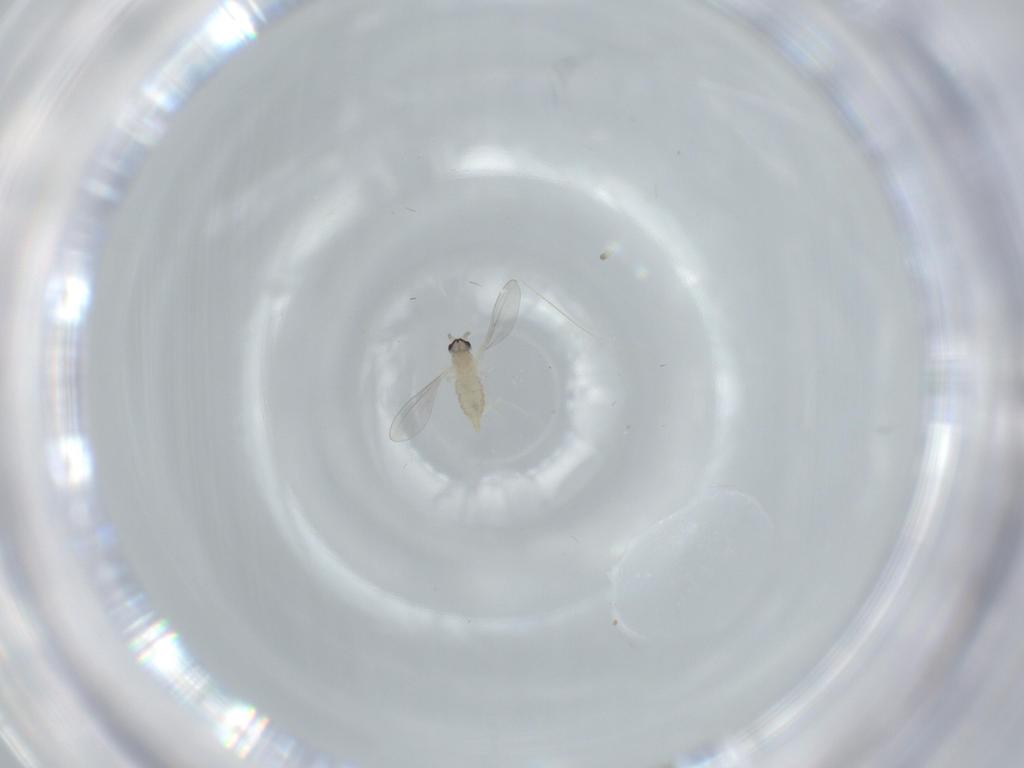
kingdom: Animalia
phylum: Arthropoda
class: Insecta
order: Diptera
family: Cecidomyiidae
